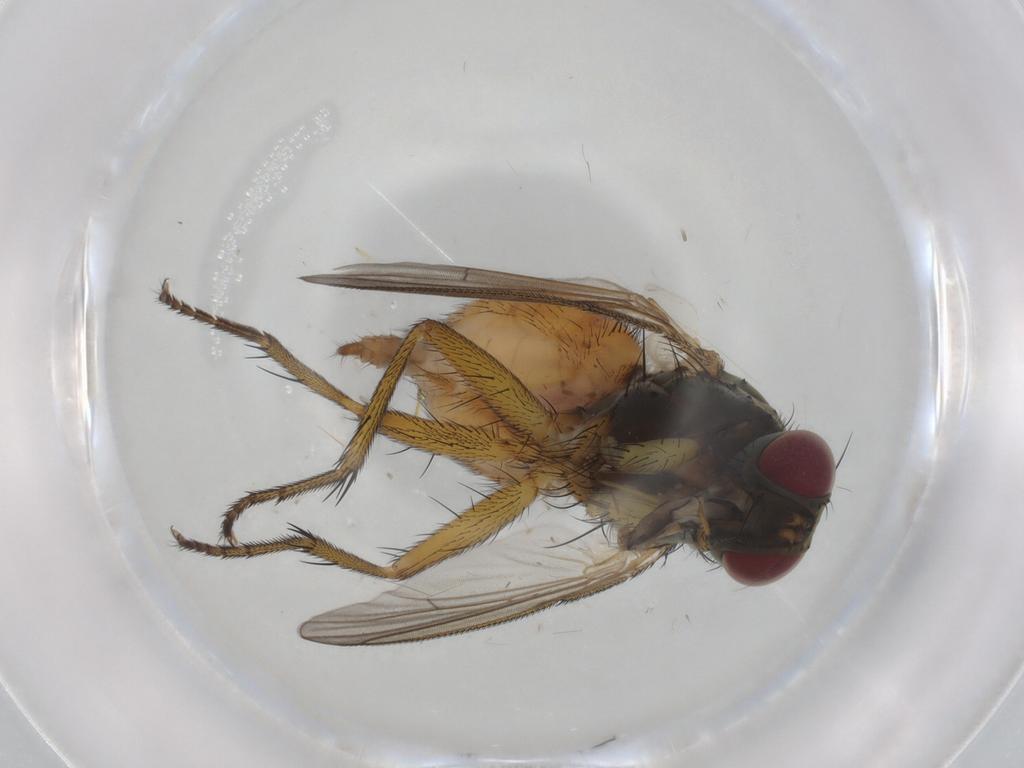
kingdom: Animalia
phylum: Arthropoda
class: Insecta
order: Diptera
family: Muscidae
